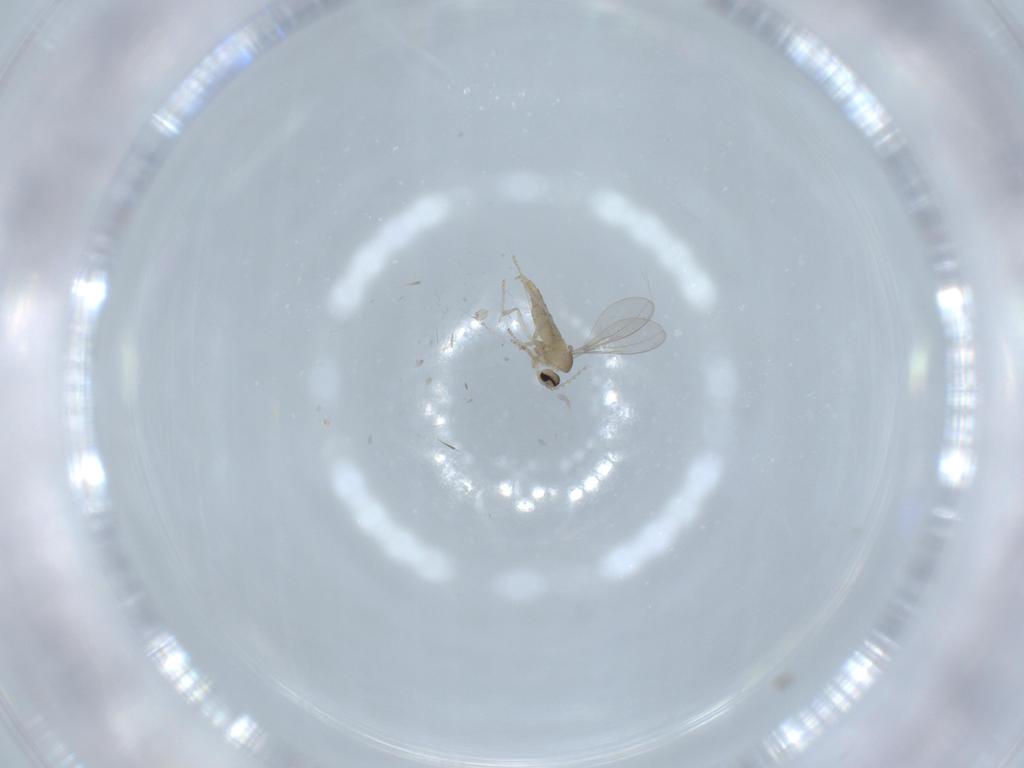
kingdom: Animalia
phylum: Arthropoda
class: Insecta
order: Diptera
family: Cecidomyiidae
